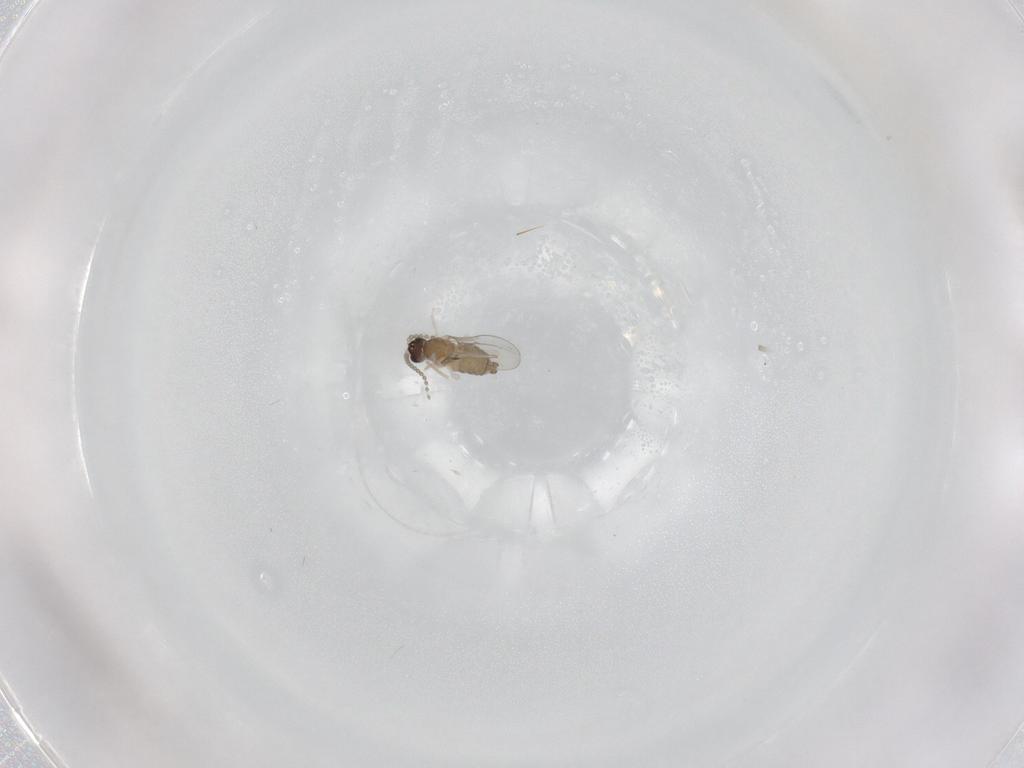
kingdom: Animalia
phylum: Arthropoda
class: Insecta
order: Diptera
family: Cecidomyiidae
